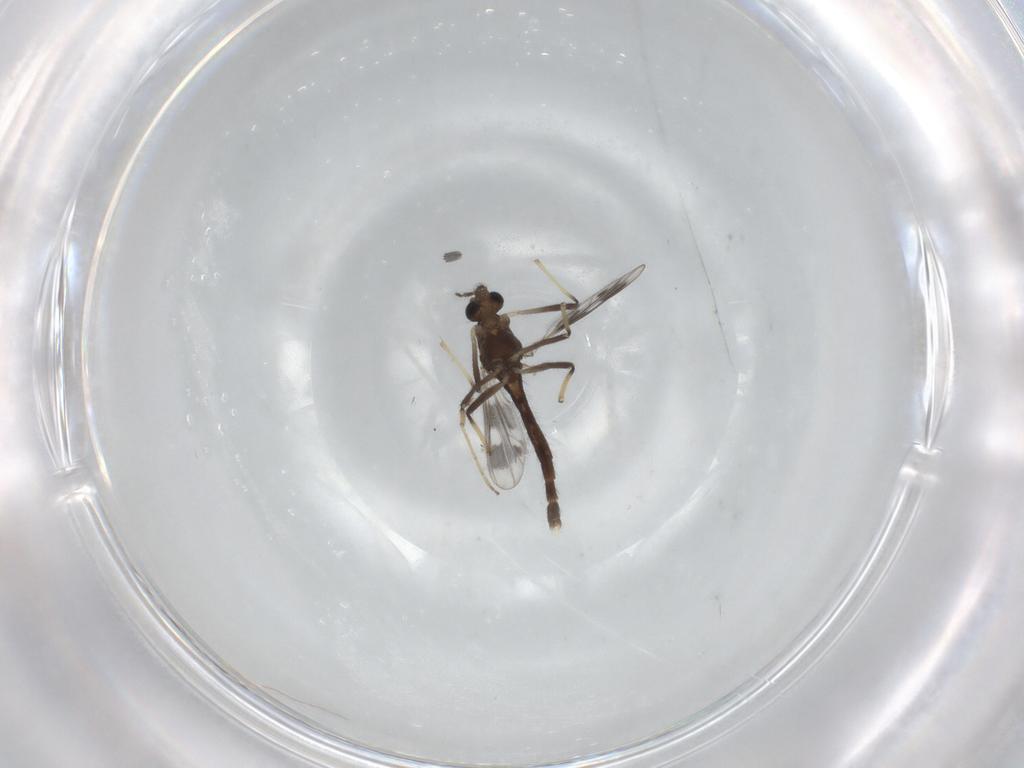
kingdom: Animalia
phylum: Arthropoda
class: Insecta
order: Diptera
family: Chironomidae
